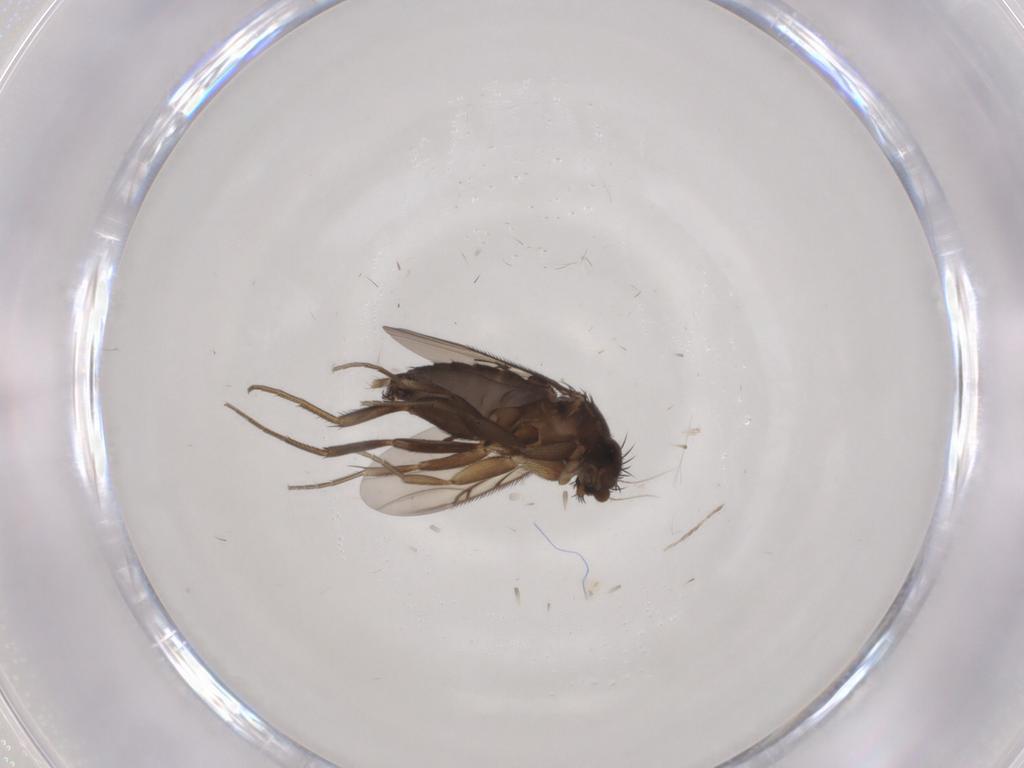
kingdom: Animalia
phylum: Arthropoda
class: Insecta
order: Diptera
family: Phoridae
